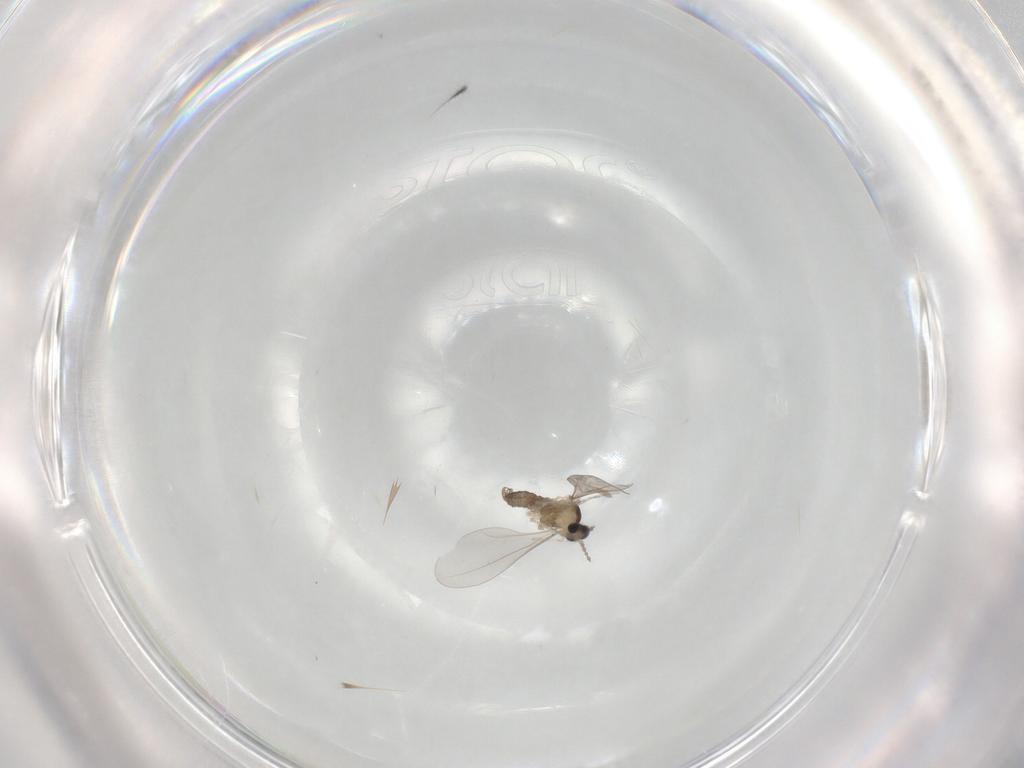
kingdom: Animalia
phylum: Arthropoda
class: Insecta
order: Diptera
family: Cecidomyiidae
